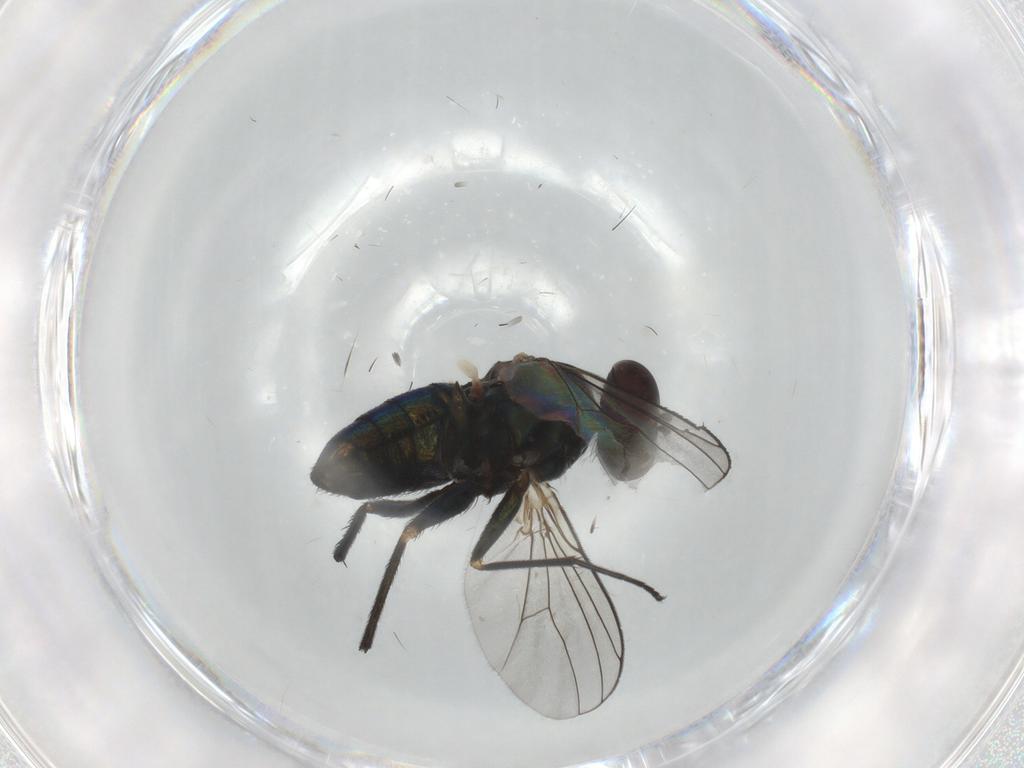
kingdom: Animalia
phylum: Arthropoda
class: Insecta
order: Diptera
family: Dolichopodidae
